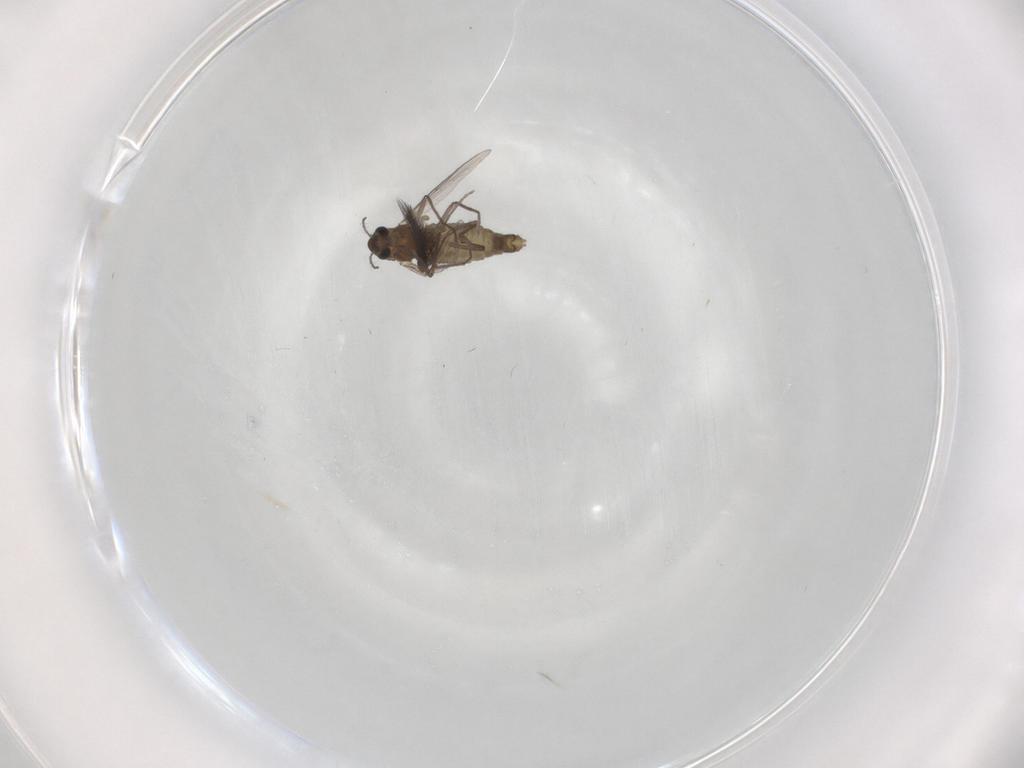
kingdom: Animalia
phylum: Arthropoda
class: Insecta
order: Diptera
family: Chironomidae
